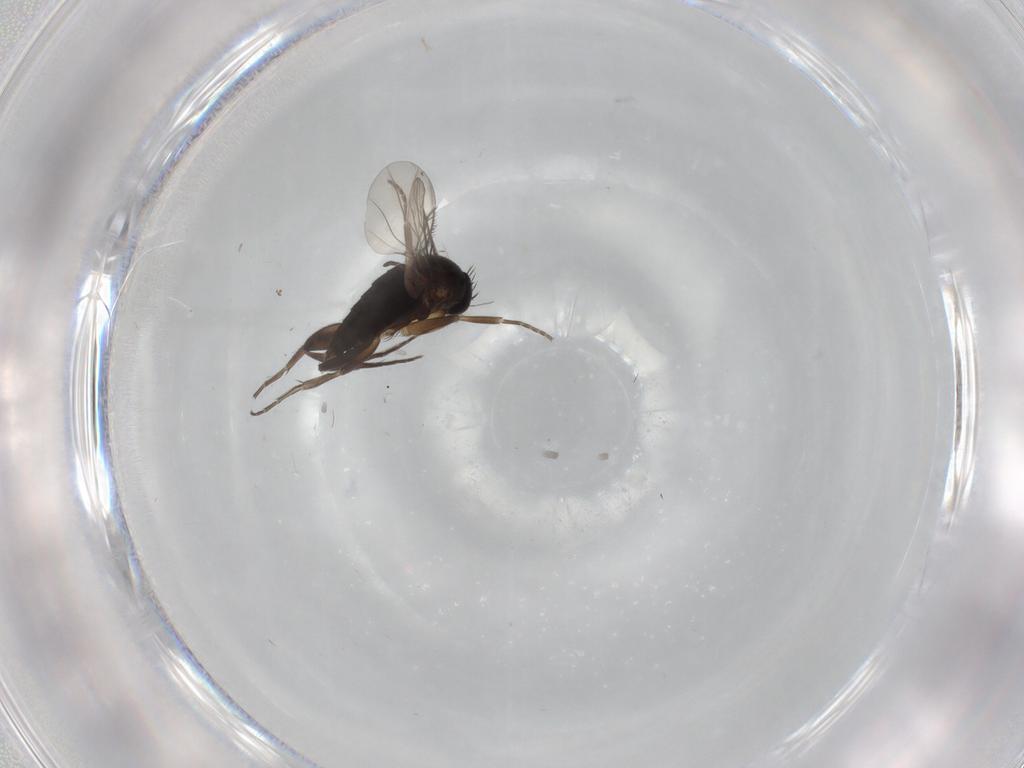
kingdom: Animalia
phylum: Arthropoda
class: Insecta
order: Diptera
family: Phoridae
